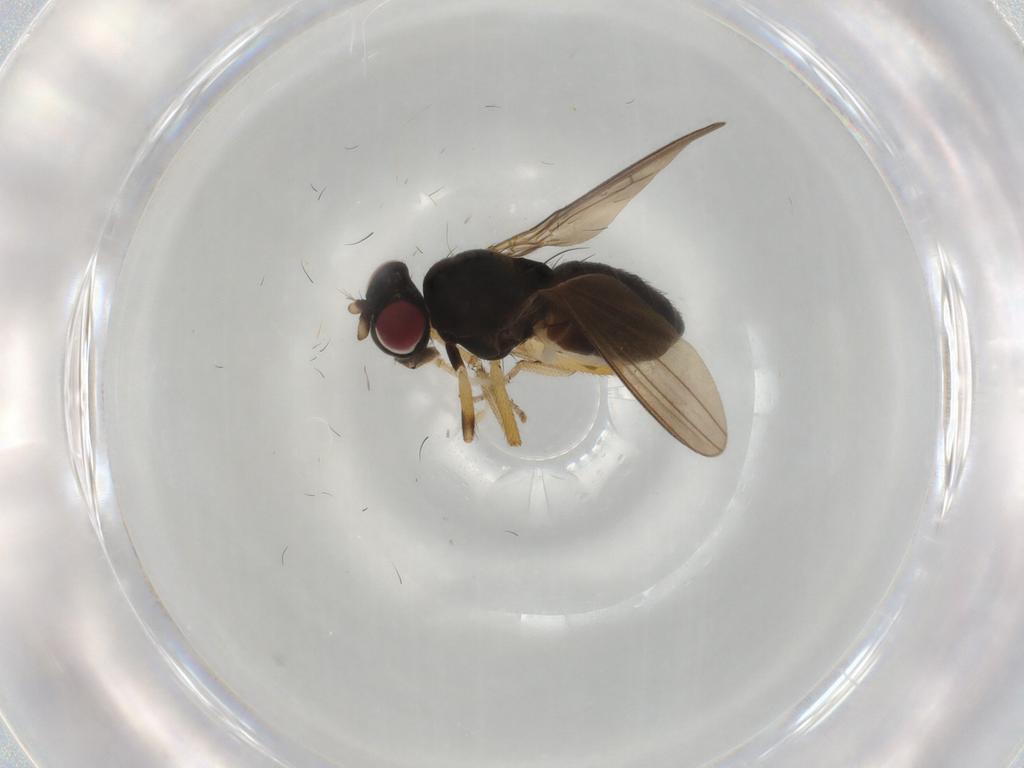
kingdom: Animalia
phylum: Arthropoda
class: Insecta
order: Diptera
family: Lauxaniidae
